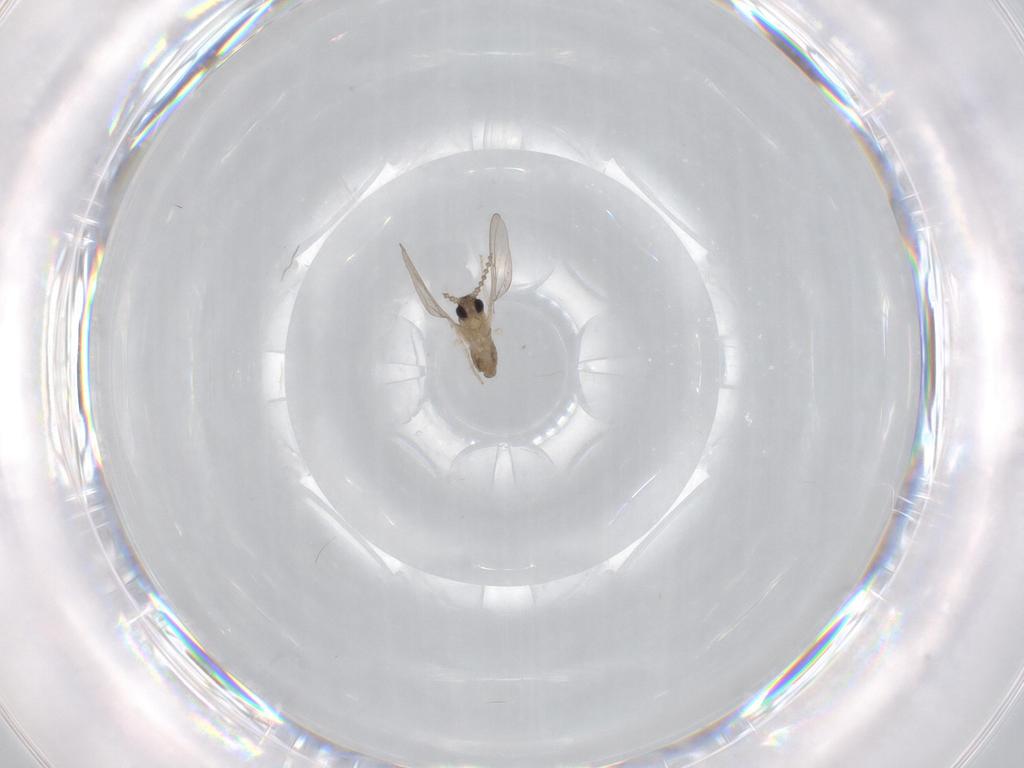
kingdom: Animalia
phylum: Arthropoda
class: Insecta
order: Diptera
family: Cecidomyiidae
